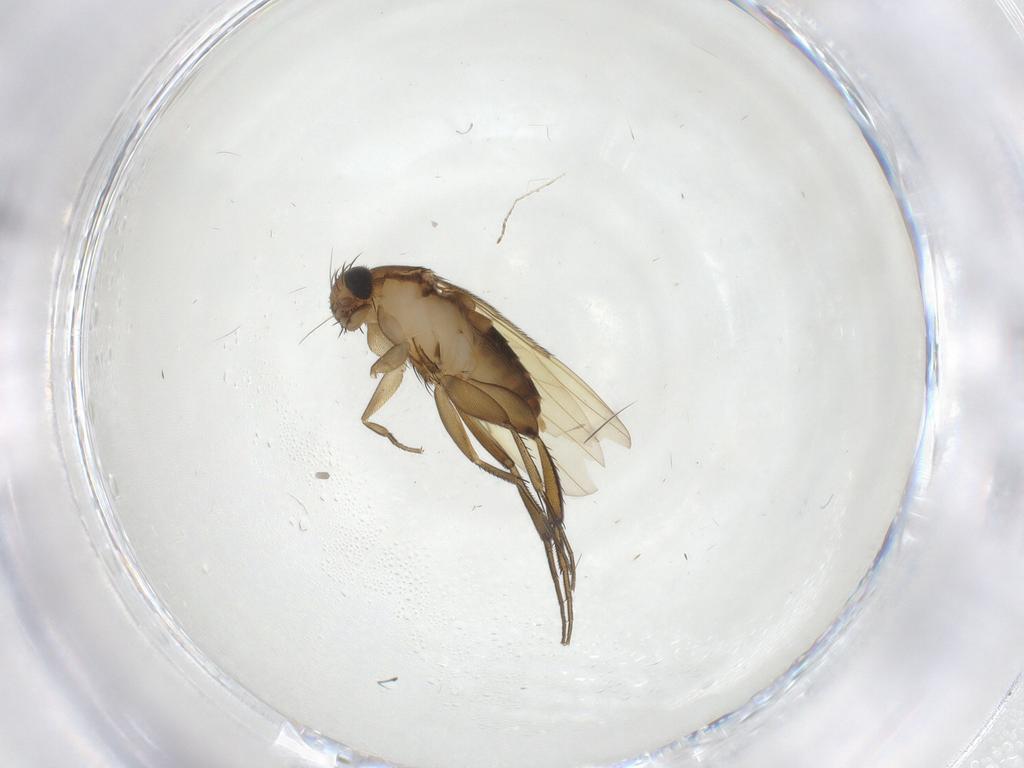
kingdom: Animalia
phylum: Arthropoda
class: Insecta
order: Diptera
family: Phoridae
